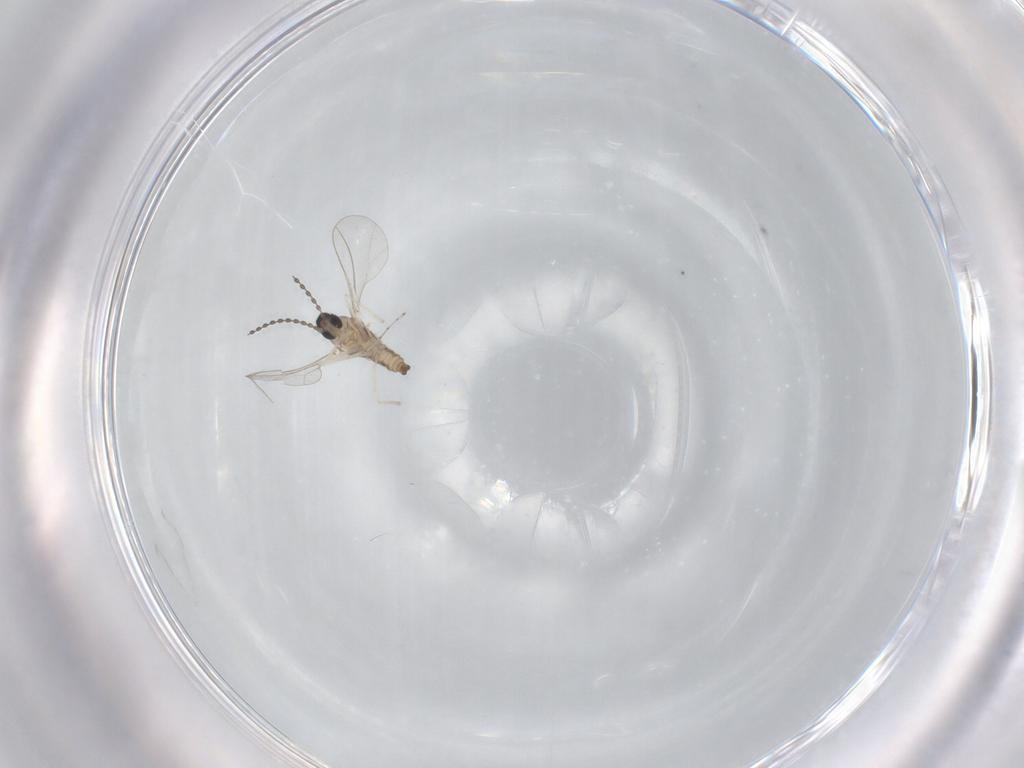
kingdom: Animalia
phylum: Arthropoda
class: Insecta
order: Diptera
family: Cecidomyiidae
